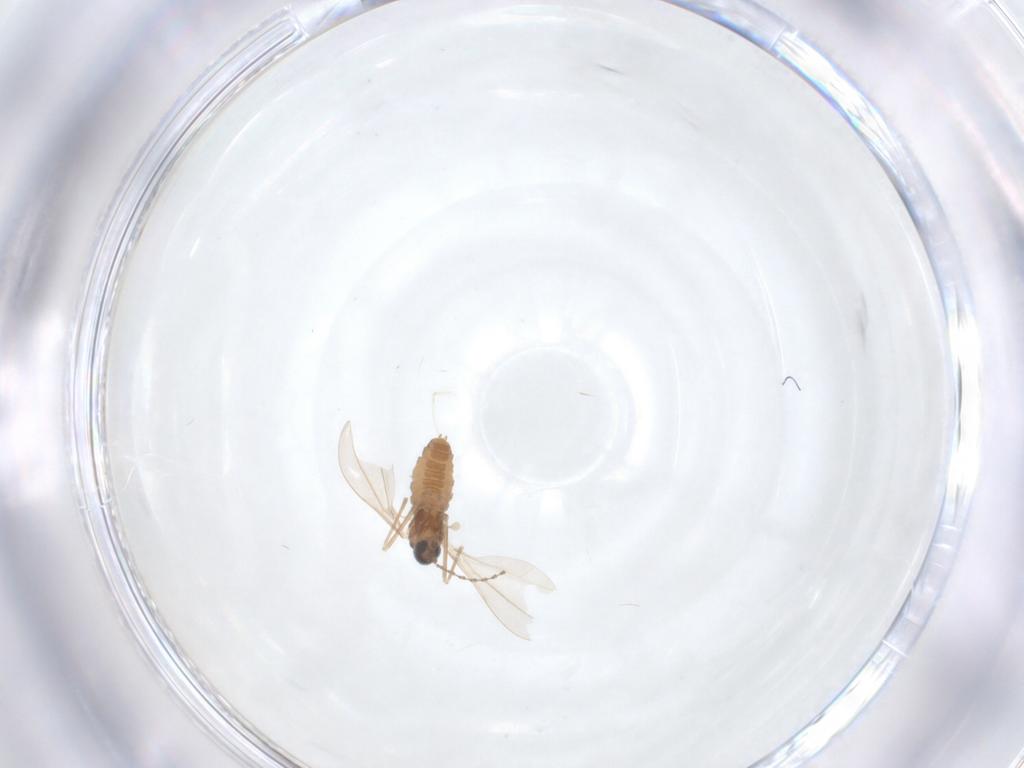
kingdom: Animalia
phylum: Arthropoda
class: Insecta
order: Diptera
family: Cecidomyiidae
